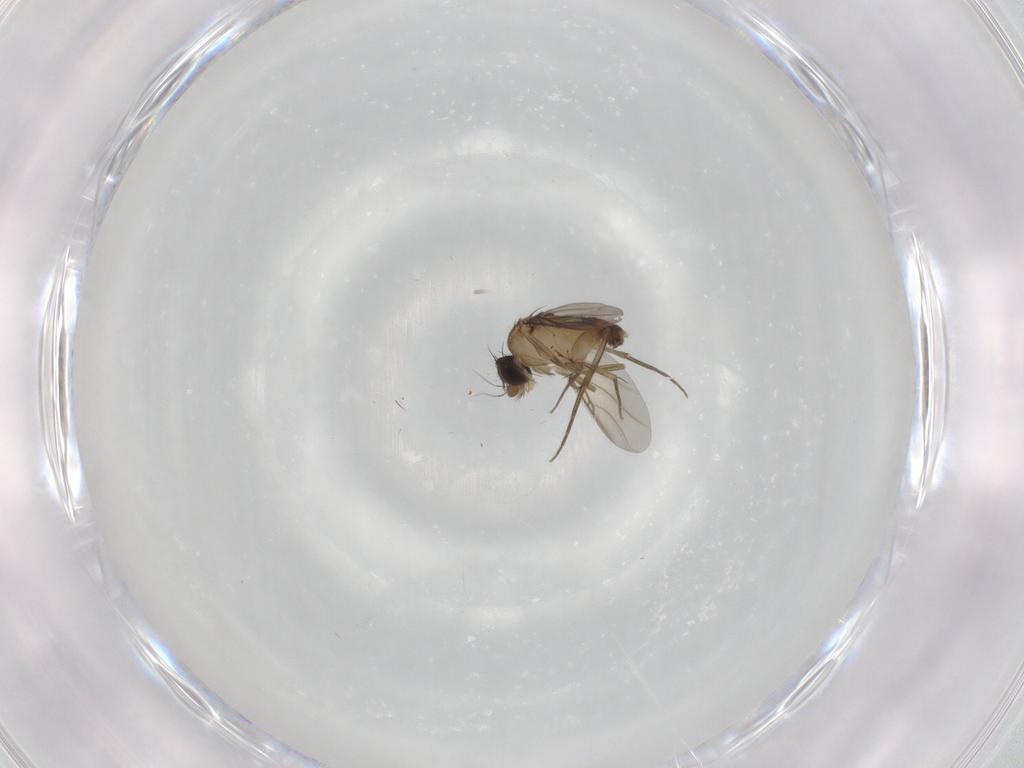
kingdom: Animalia
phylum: Arthropoda
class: Insecta
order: Diptera
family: Phoridae
